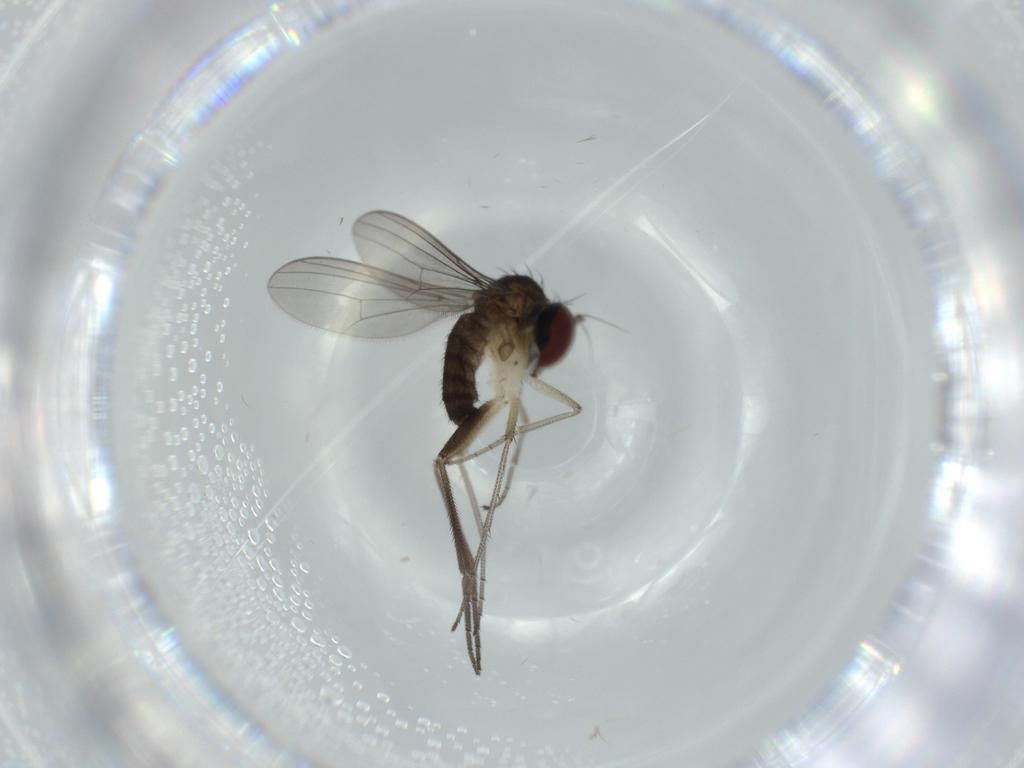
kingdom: Animalia
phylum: Arthropoda
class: Insecta
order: Diptera
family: Dolichopodidae
